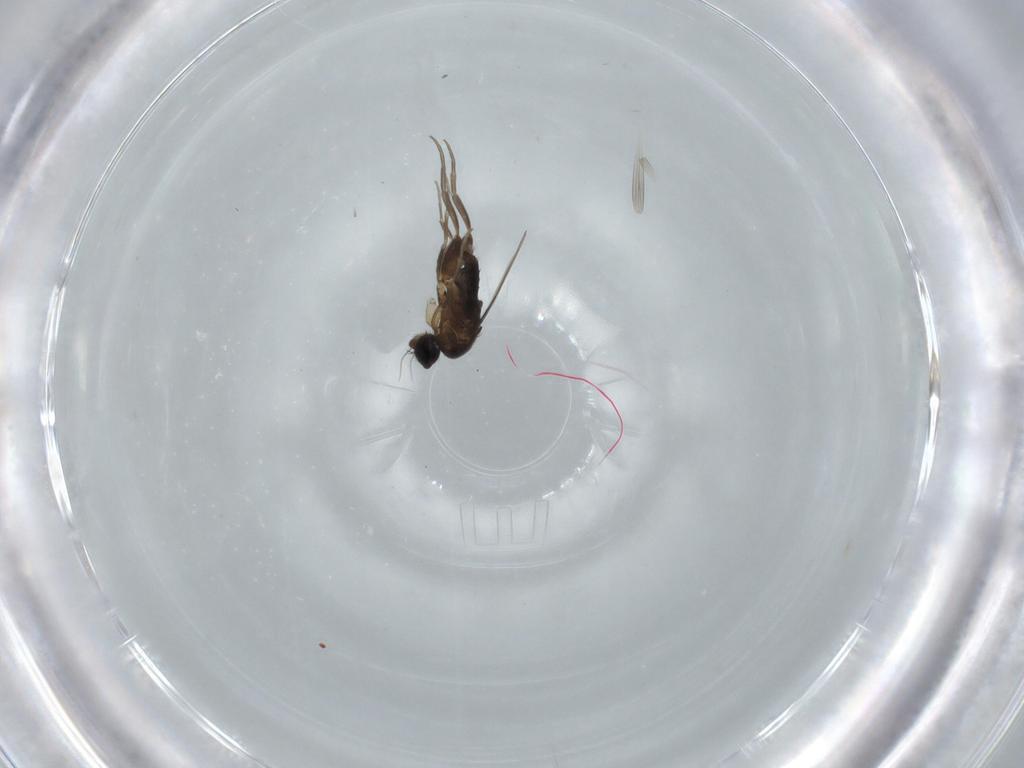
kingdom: Animalia
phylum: Arthropoda
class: Insecta
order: Diptera
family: Phoridae
